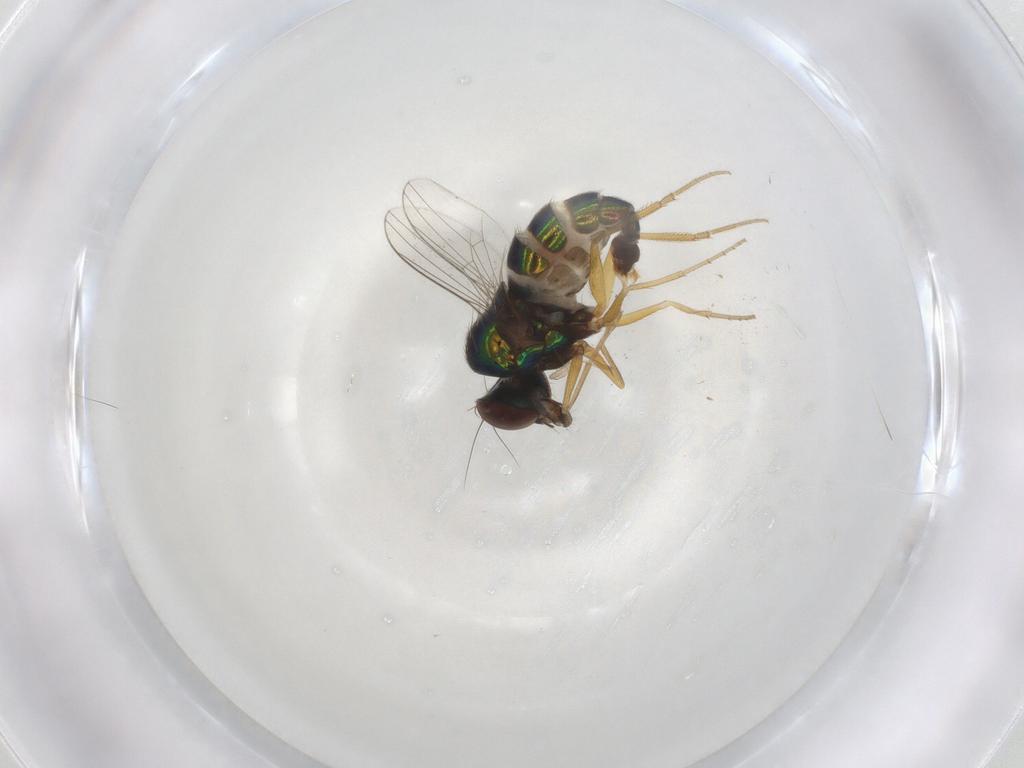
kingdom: Animalia
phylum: Arthropoda
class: Insecta
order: Diptera
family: Dolichopodidae
